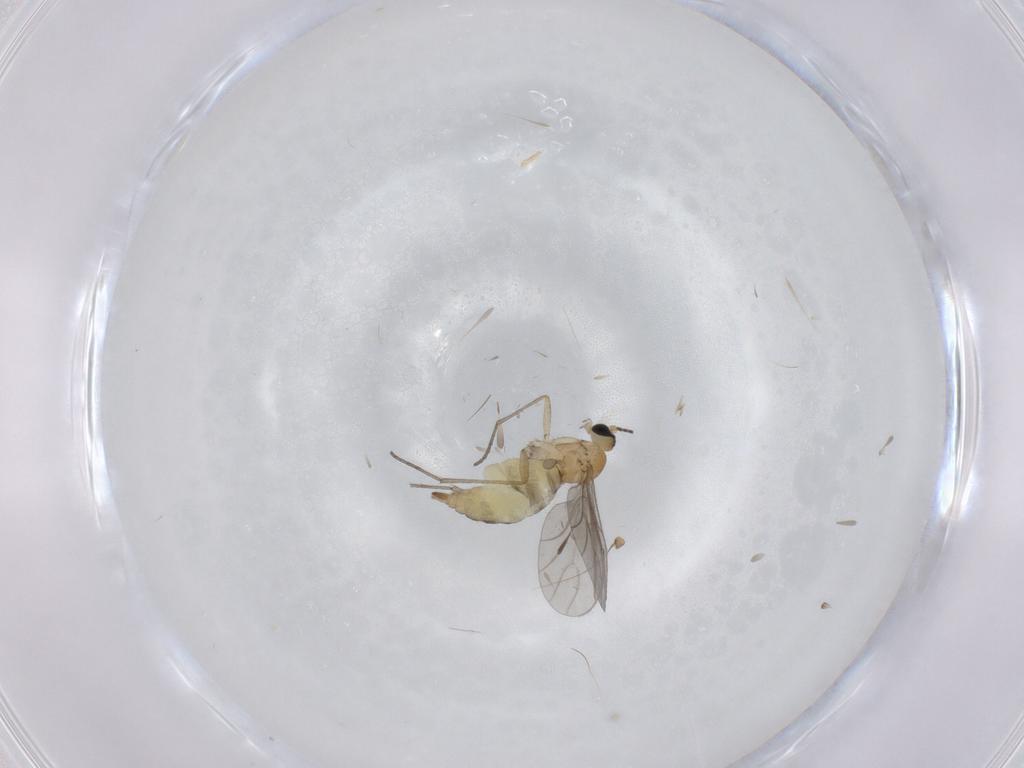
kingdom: Animalia
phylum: Arthropoda
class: Insecta
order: Diptera
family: Sciaridae
